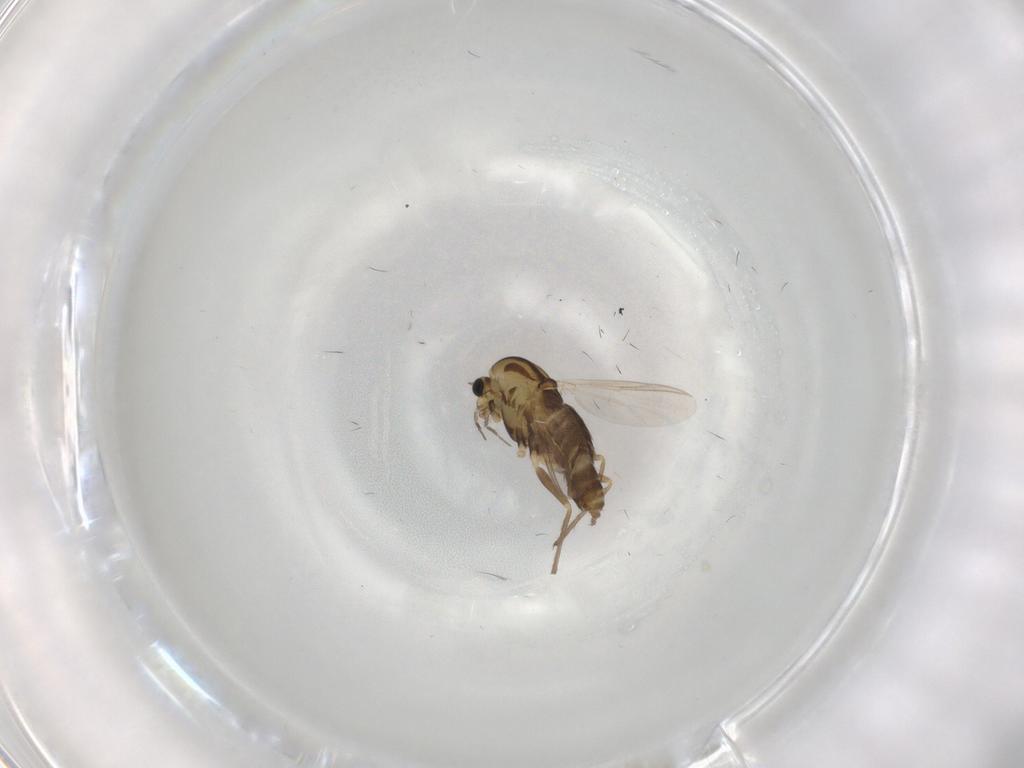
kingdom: Animalia
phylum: Arthropoda
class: Insecta
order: Diptera
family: Chironomidae
